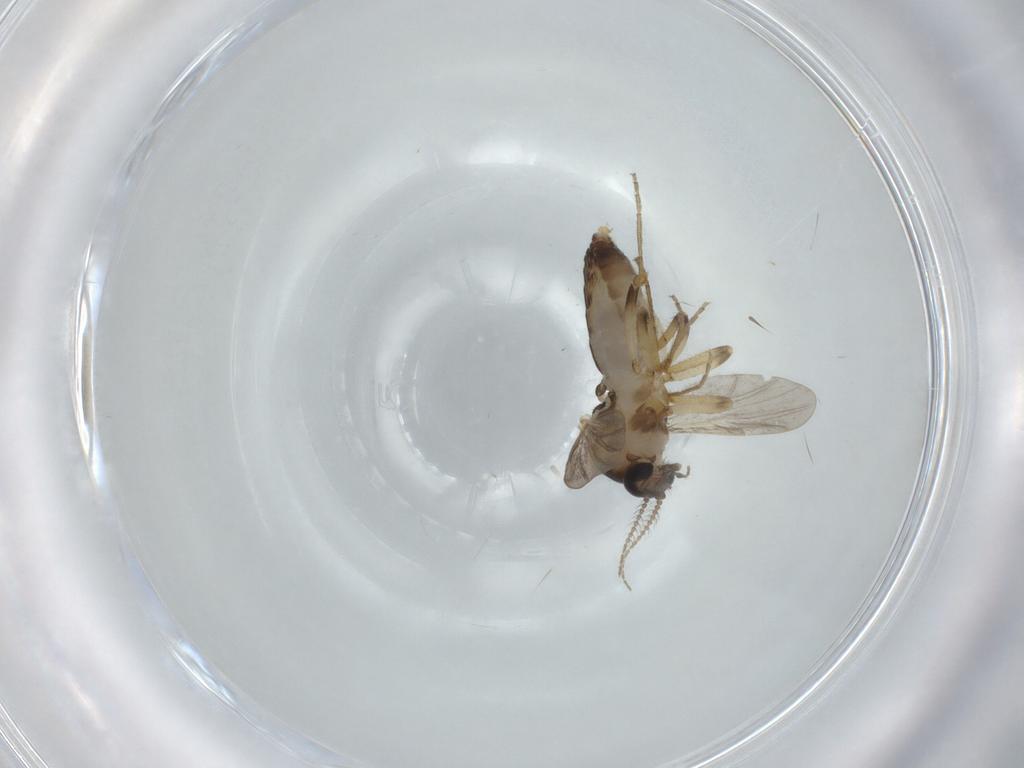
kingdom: Animalia
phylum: Arthropoda
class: Insecta
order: Diptera
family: Ceratopogonidae
